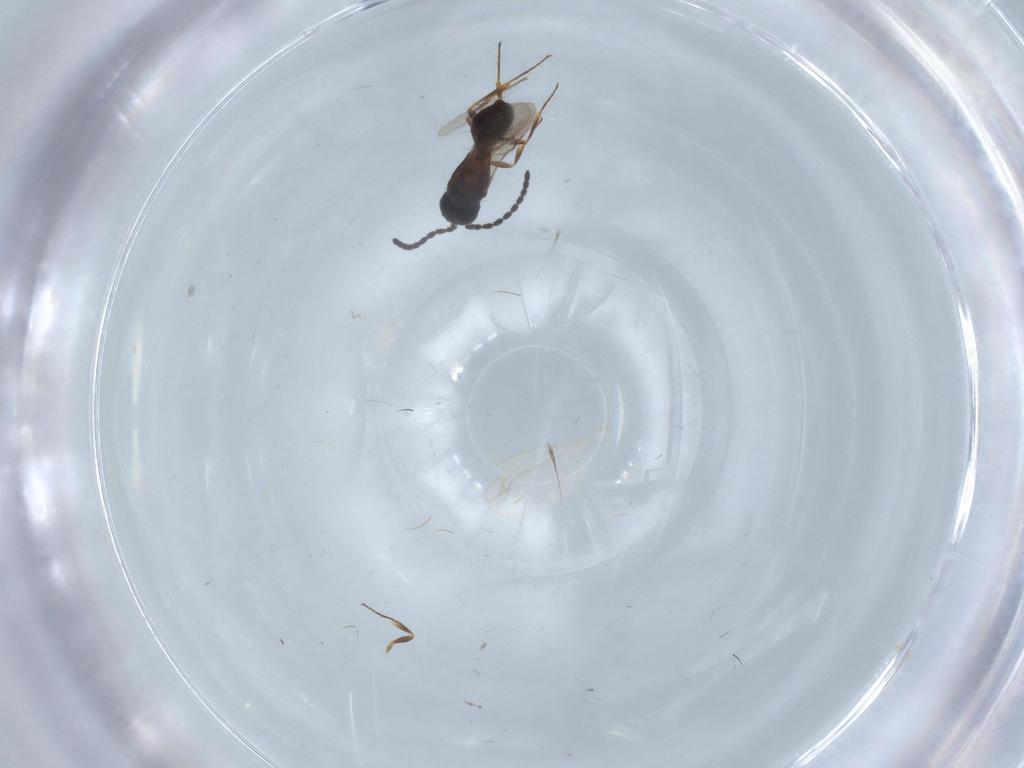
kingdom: Animalia
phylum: Arthropoda
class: Insecta
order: Hymenoptera
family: Scelionidae
